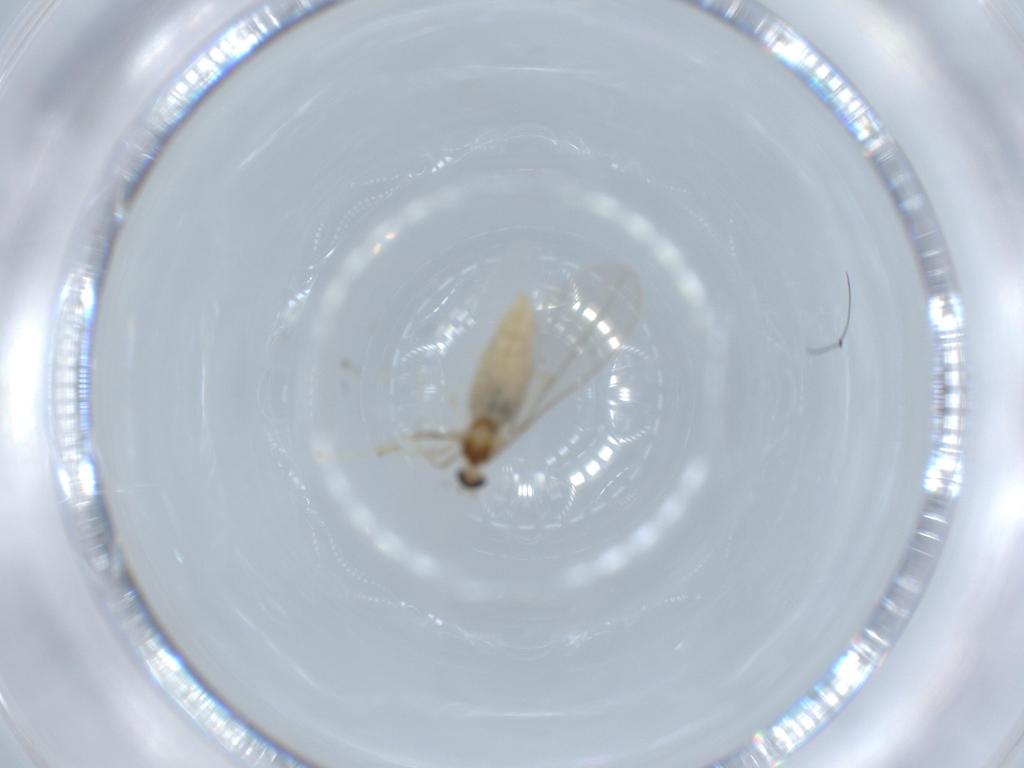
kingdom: Animalia
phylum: Arthropoda
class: Insecta
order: Diptera
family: Cecidomyiidae
